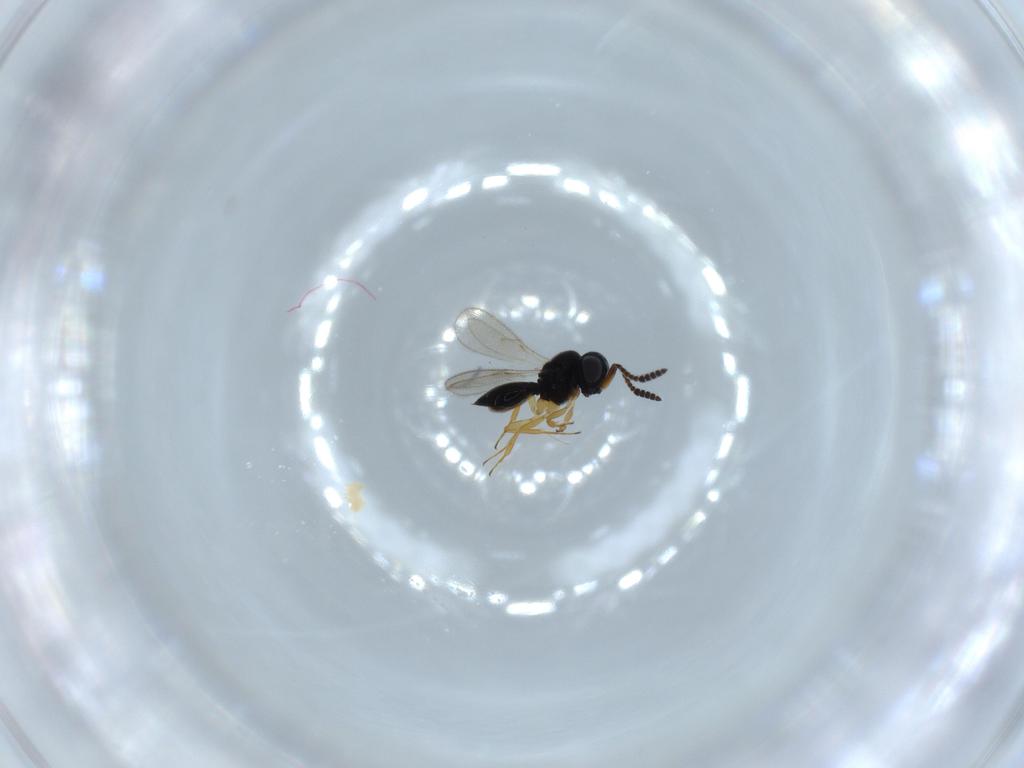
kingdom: Animalia
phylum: Arthropoda
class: Insecta
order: Hymenoptera
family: Scelionidae
